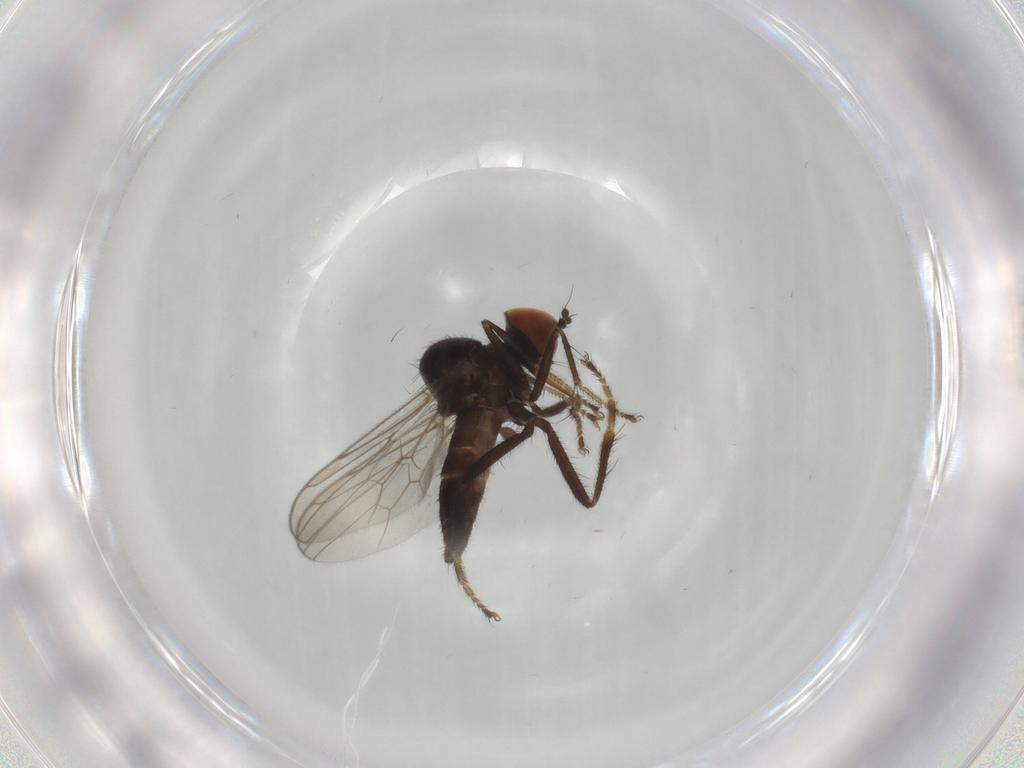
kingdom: Animalia
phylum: Arthropoda
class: Insecta
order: Diptera
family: Hybotidae
